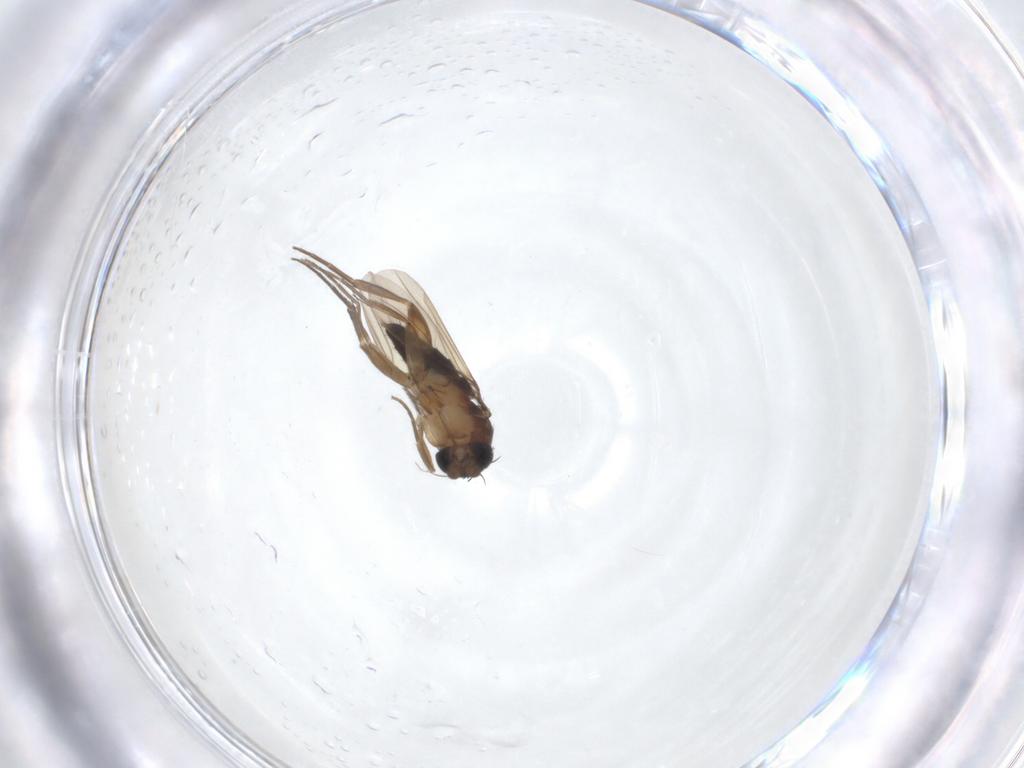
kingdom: Animalia
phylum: Arthropoda
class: Insecta
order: Diptera
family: Phoridae
